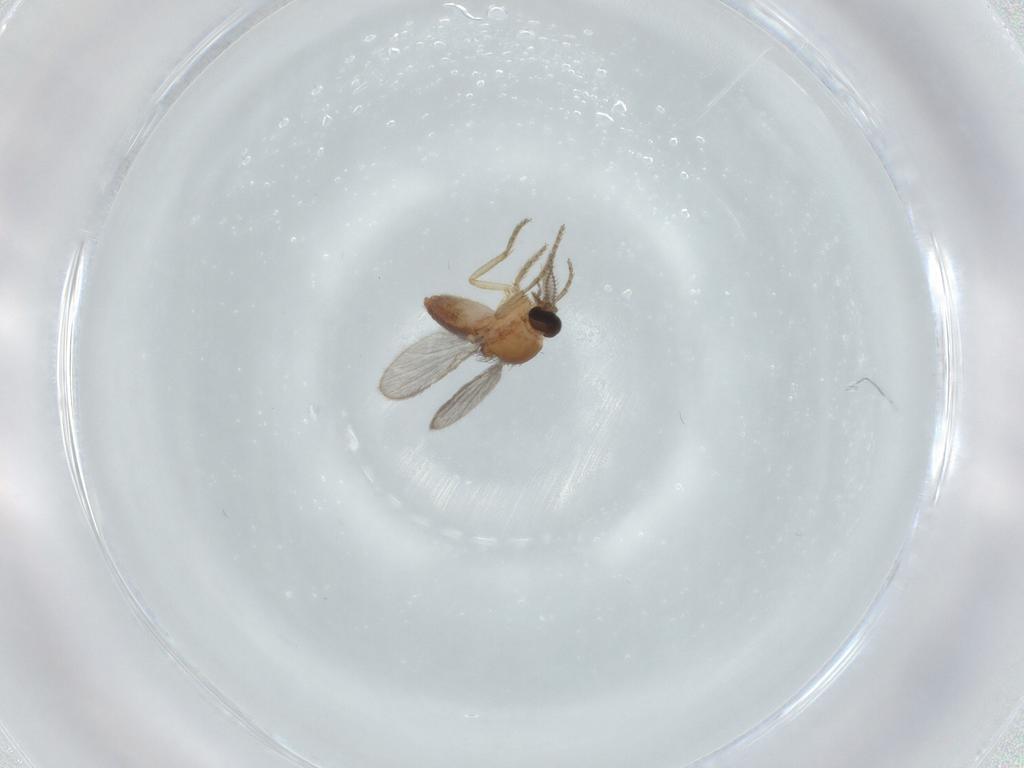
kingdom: Animalia
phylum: Arthropoda
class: Insecta
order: Diptera
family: Ceratopogonidae
